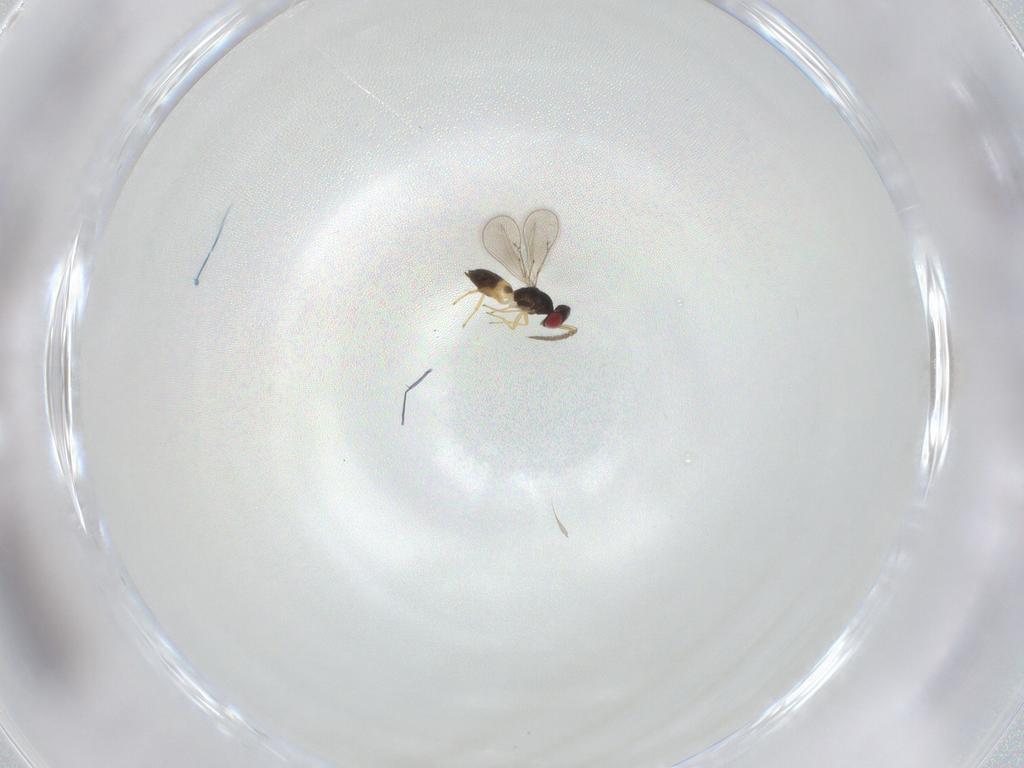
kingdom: Animalia
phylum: Arthropoda
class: Insecta
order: Hymenoptera
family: Eulophidae
